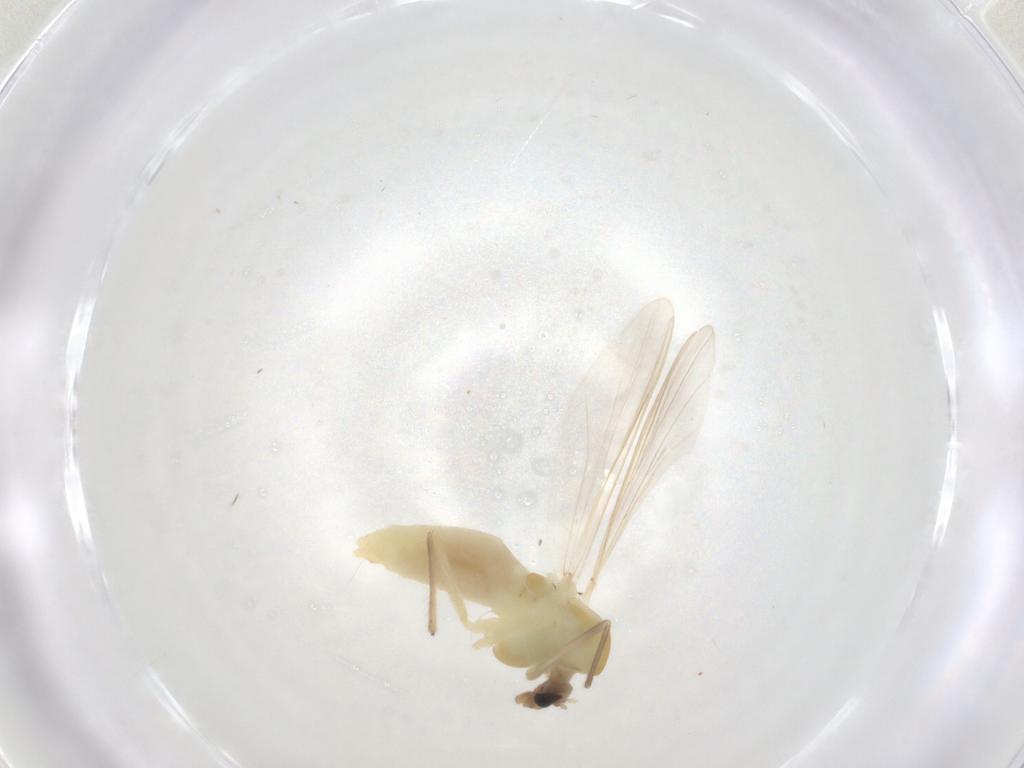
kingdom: Animalia
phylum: Arthropoda
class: Insecta
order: Diptera
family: Chironomidae
